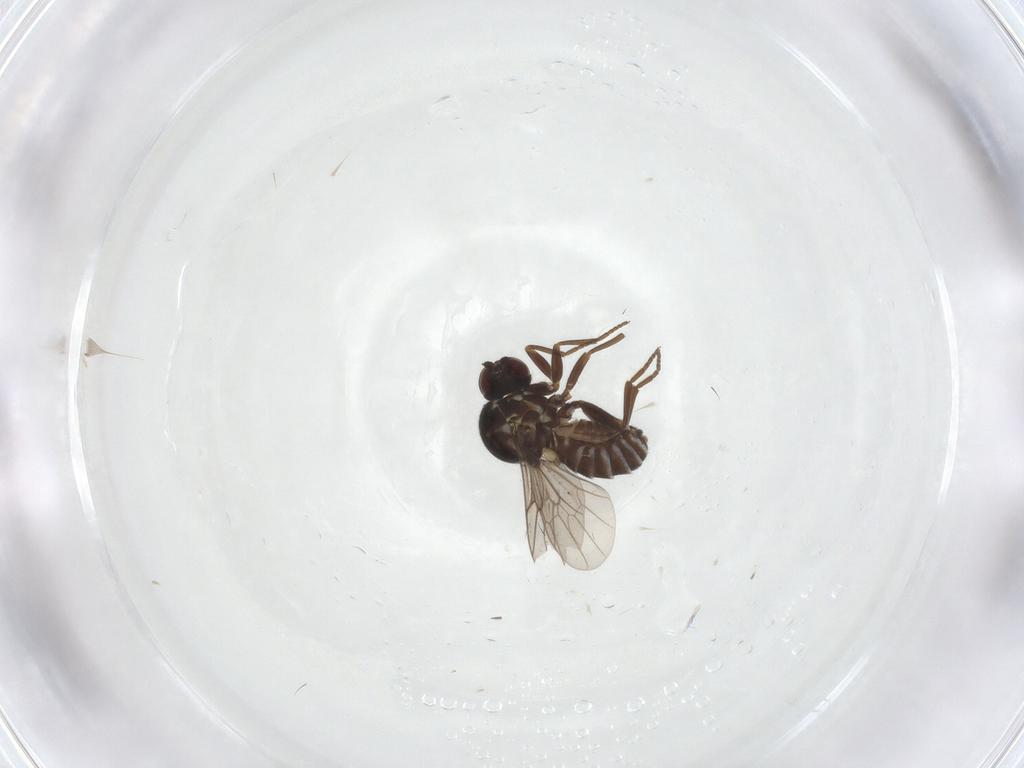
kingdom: Animalia
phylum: Arthropoda
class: Insecta
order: Diptera
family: Mythicomyiidae
